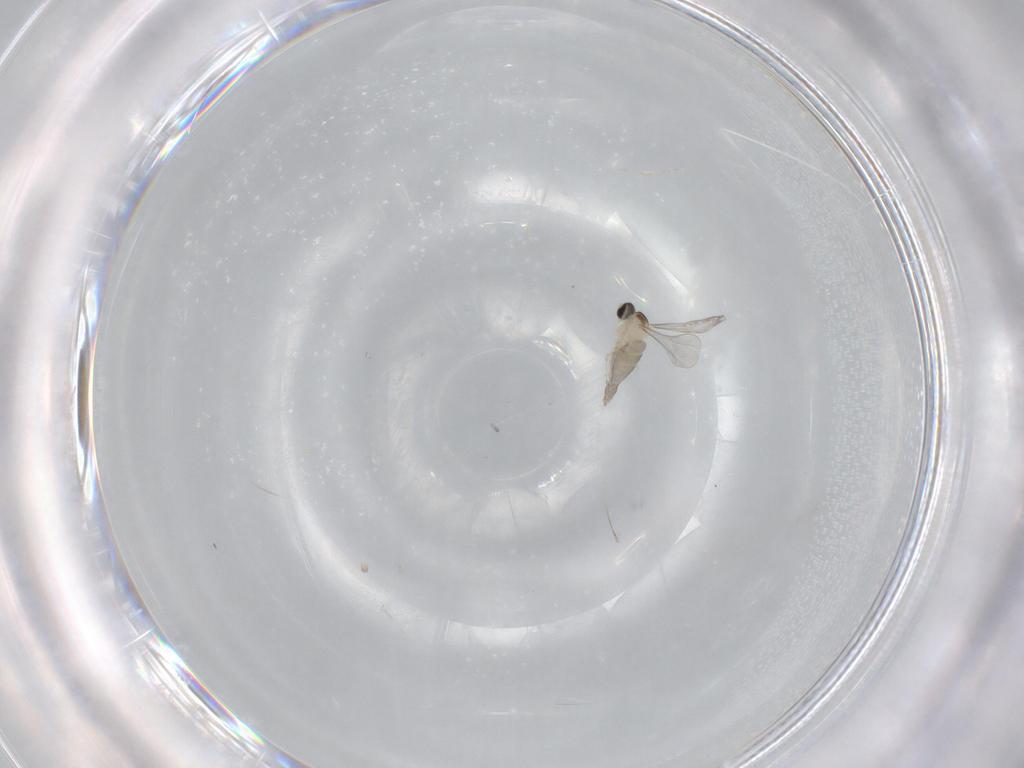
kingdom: Animalia
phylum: Arthropoda
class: Insecta
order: Diptera
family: Cecidomyiidae
